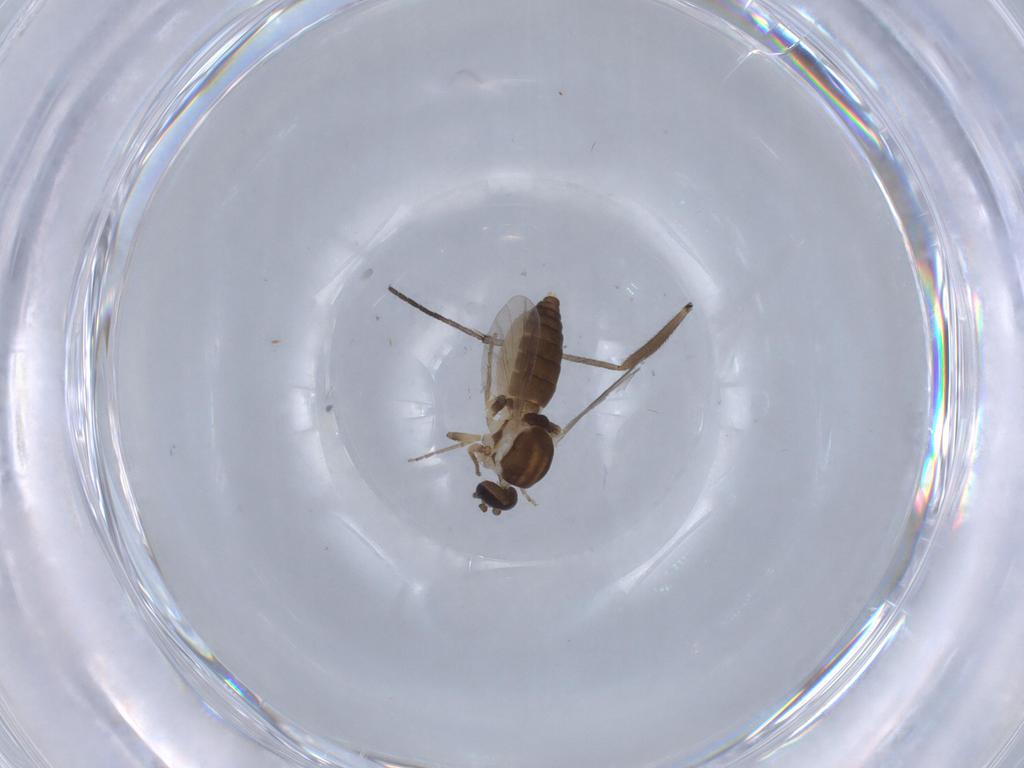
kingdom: Animalia
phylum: Arthropoda
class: Insecta
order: Diptera
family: Ceratopogonidae
